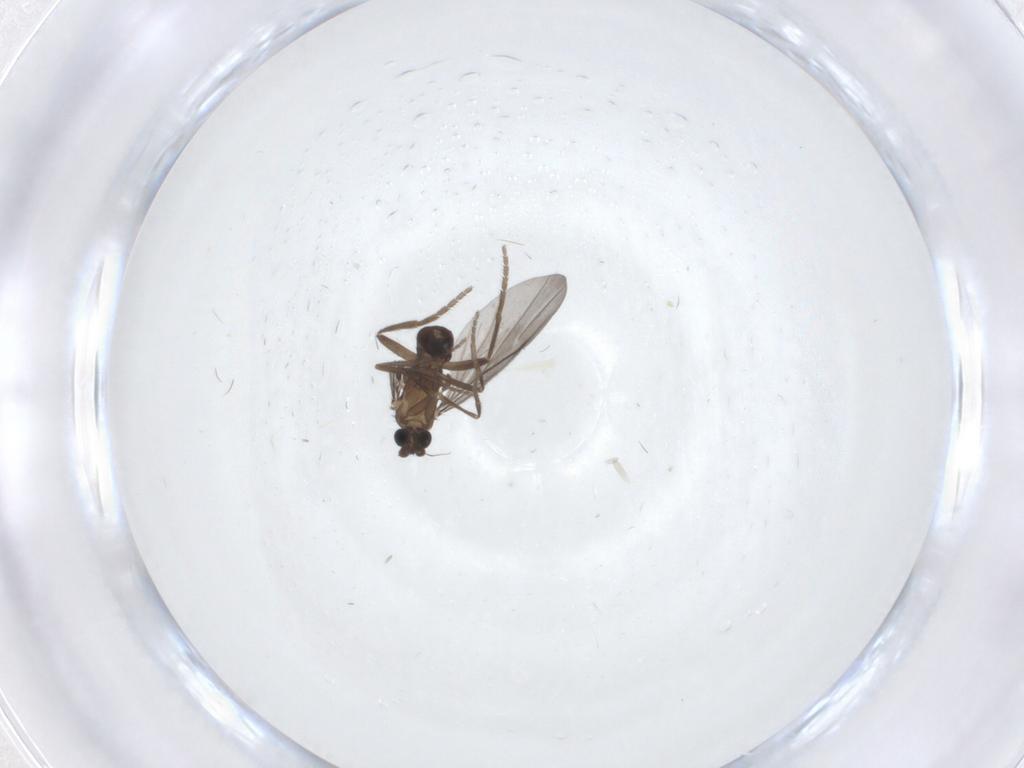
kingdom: Animalia
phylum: Arthropoda
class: Insecta
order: Diptera
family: Phoridae
